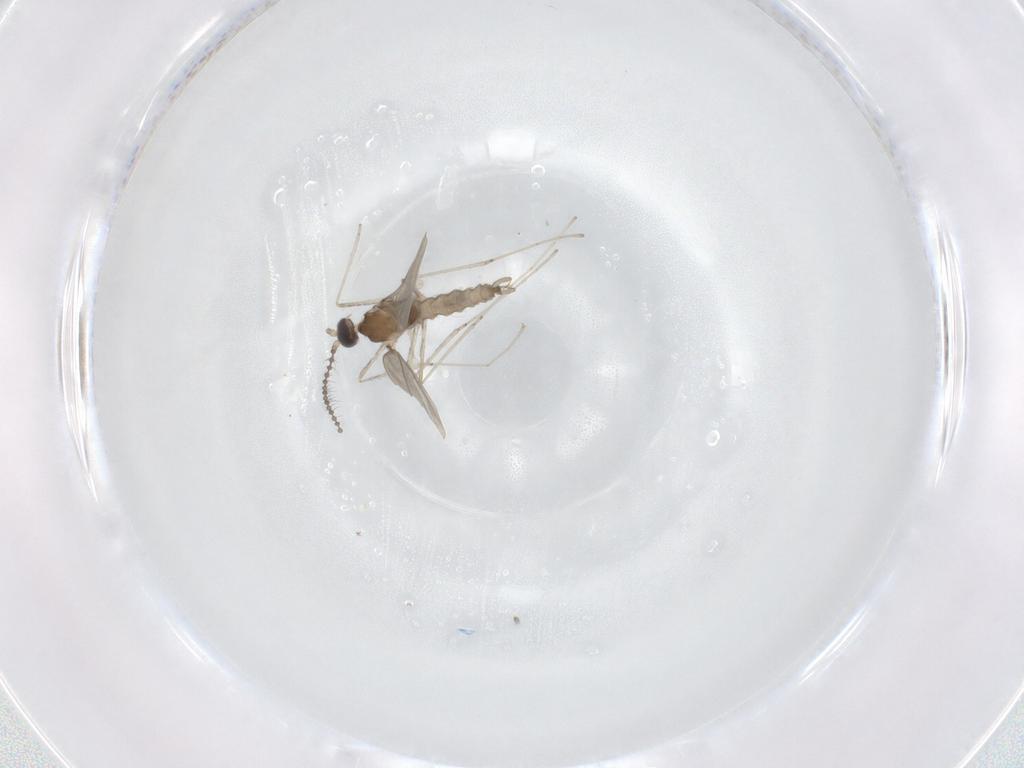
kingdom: Animalia
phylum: Arthropoda
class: Insecta
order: Diptera
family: Cecidomyiidae
